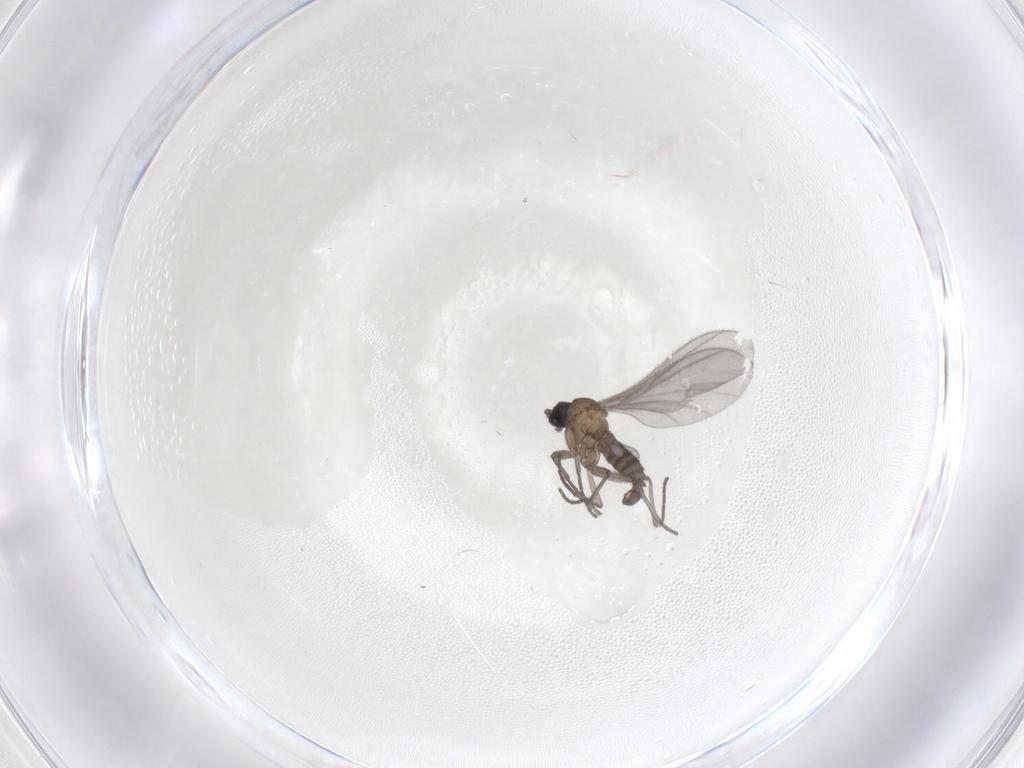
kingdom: Animalia
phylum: Arthropoda
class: Insecta
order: Diptera
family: Sciaridae
